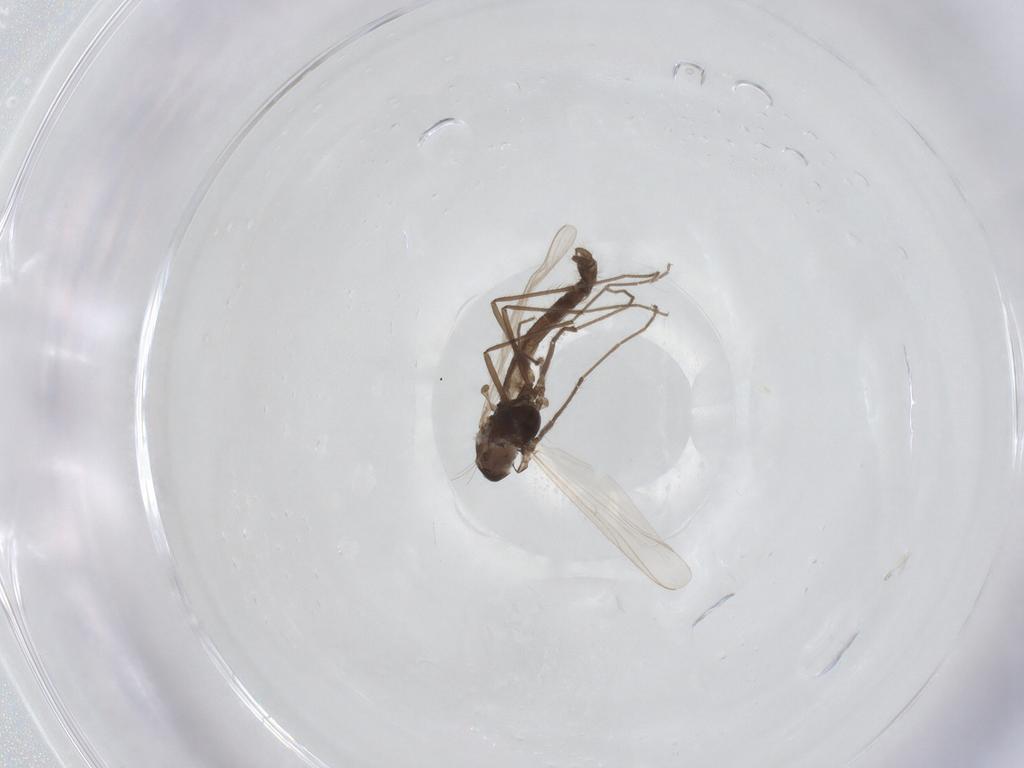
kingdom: Animalia
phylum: Arthropoda
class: Insecta
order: Diptera
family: Chironomidae
